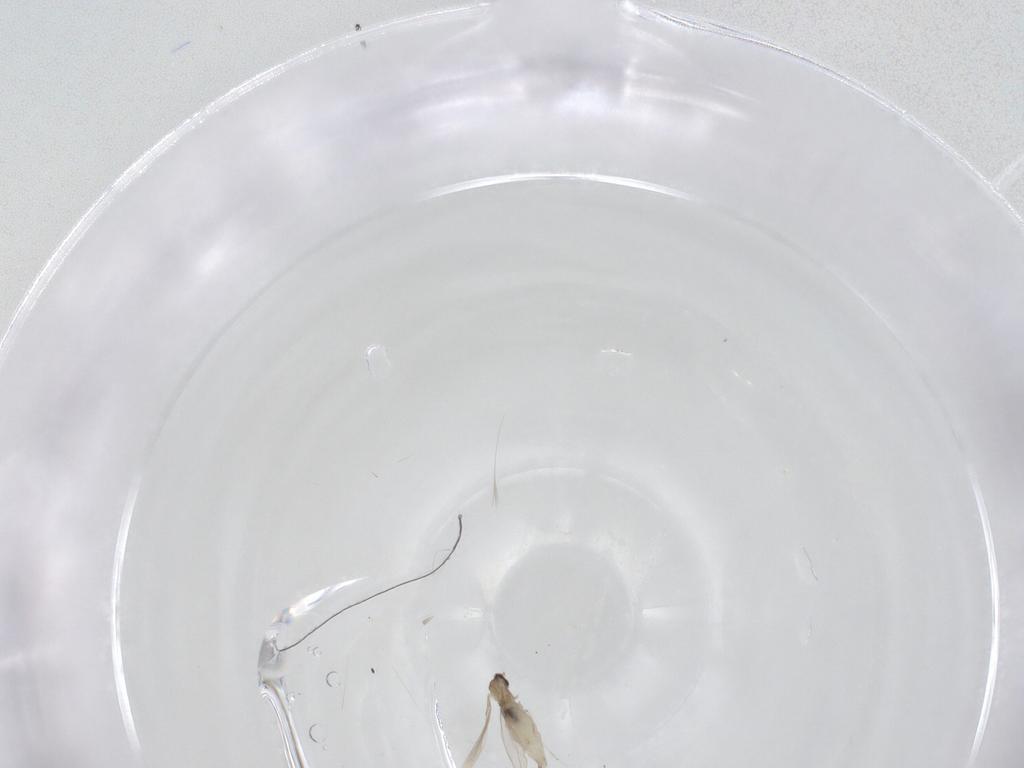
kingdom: Animalia
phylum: Arthropoda
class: Insecta
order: Diptera
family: Cecidomyiidae
